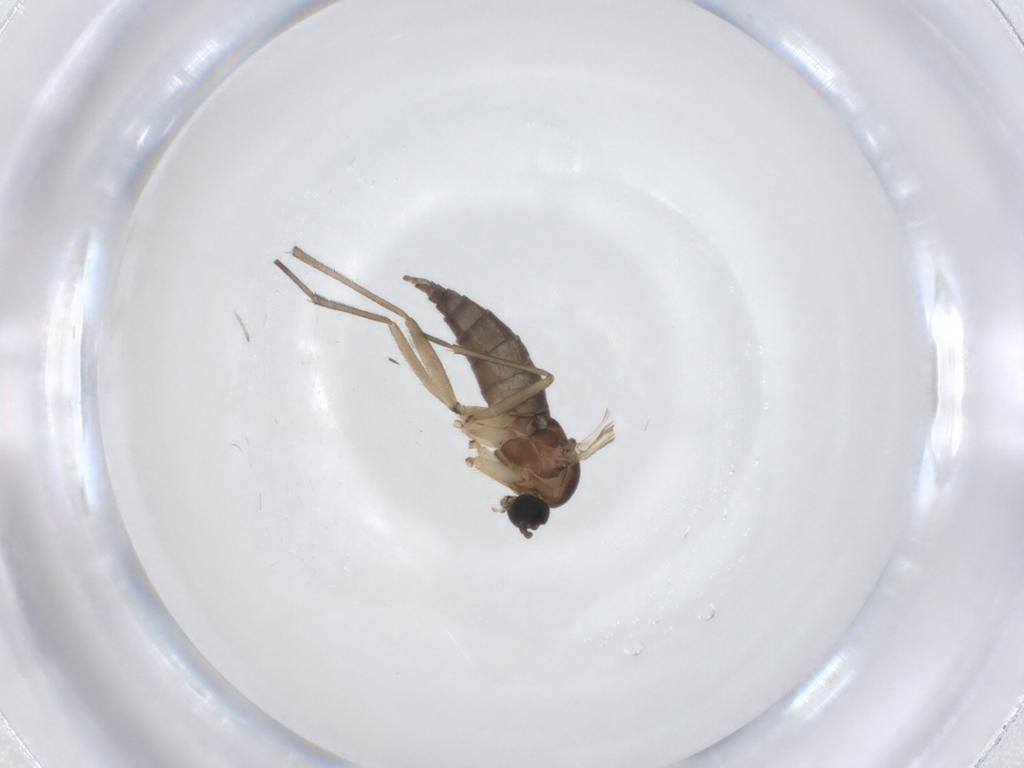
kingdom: Animalia
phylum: Arthropoda
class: Insecta
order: Diptera
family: Sciaridae
